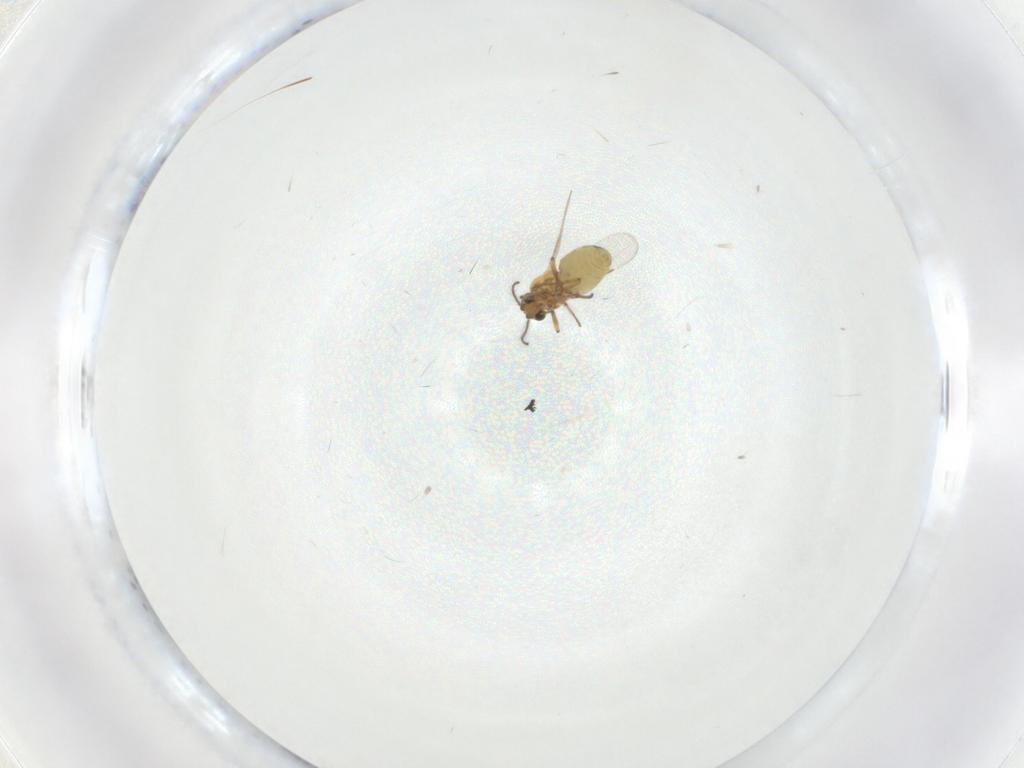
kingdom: Animalia
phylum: Arthropoda
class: Insecta
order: Diptera
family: Ceratopogonidae
